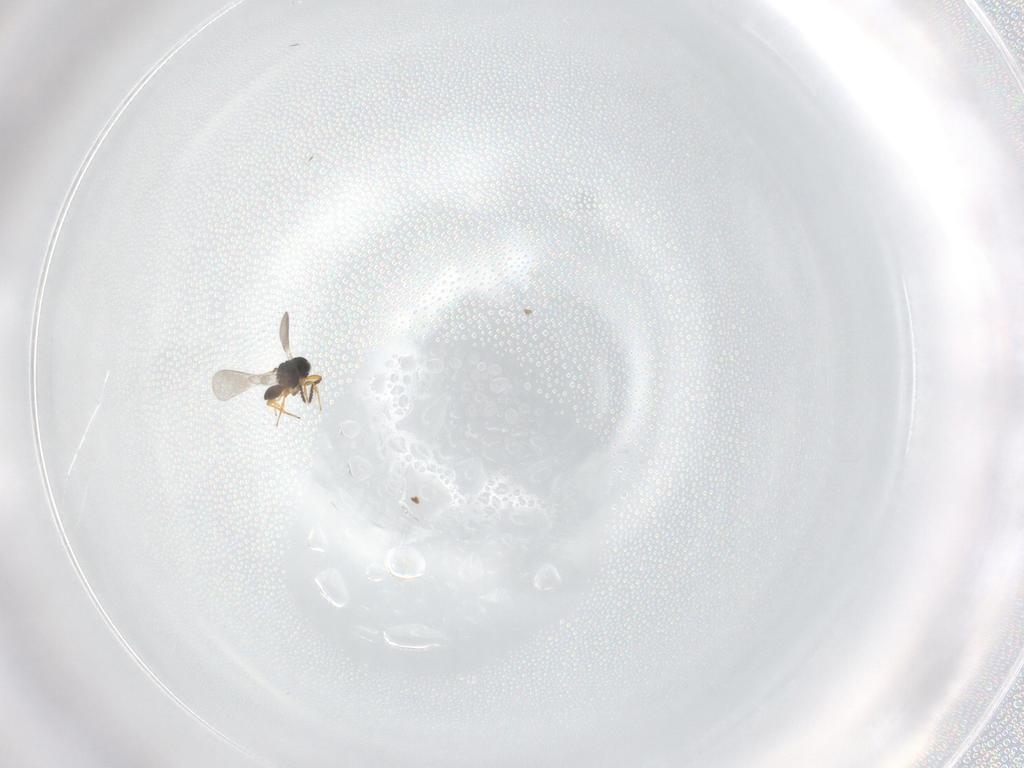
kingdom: Animalia
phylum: Arthropoda
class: Insecta
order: Hymenoptera
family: Platygastridae
